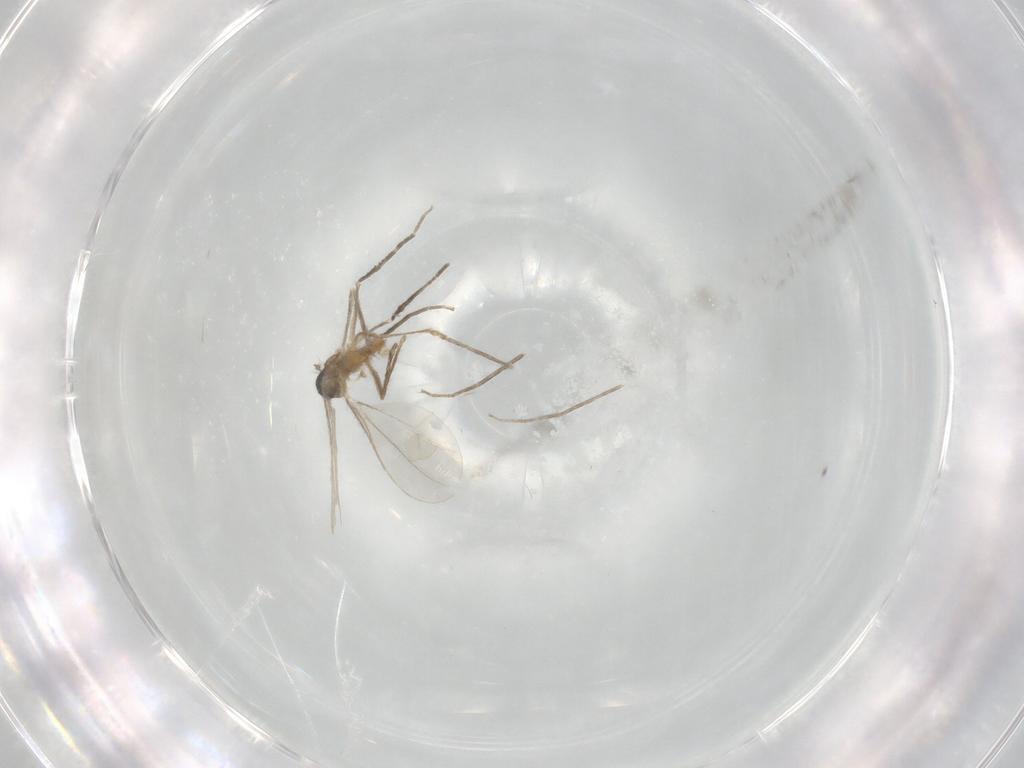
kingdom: Animalia
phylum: Arthropoda
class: Insecta
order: Diptera
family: Cecidomyiidae
